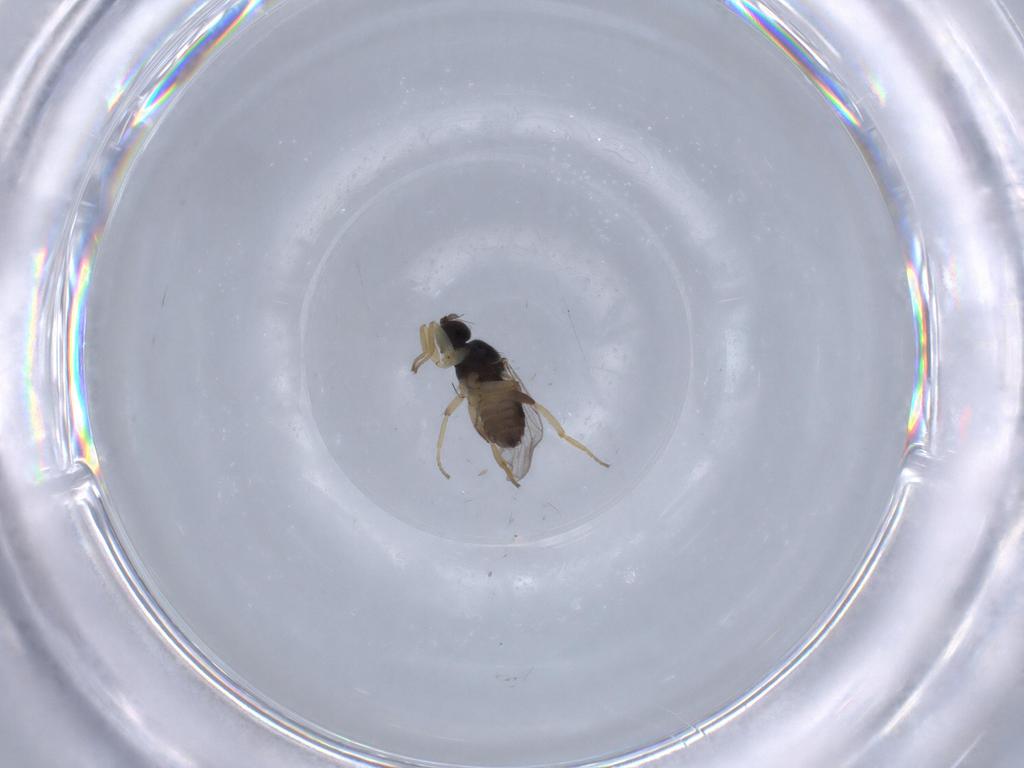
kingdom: Animalia
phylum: Arthropoda
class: Insecta
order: Diptera
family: Hybotidae
